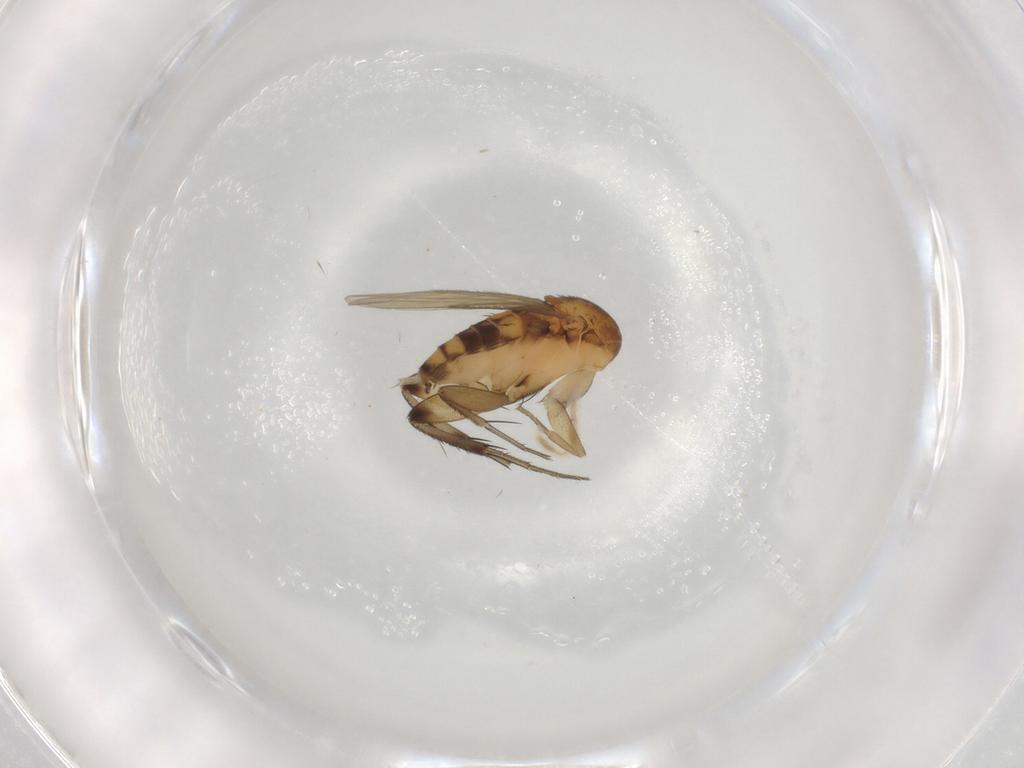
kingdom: Animalia
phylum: Arthropoda
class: Insecta
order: Diptera
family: Phoridae
